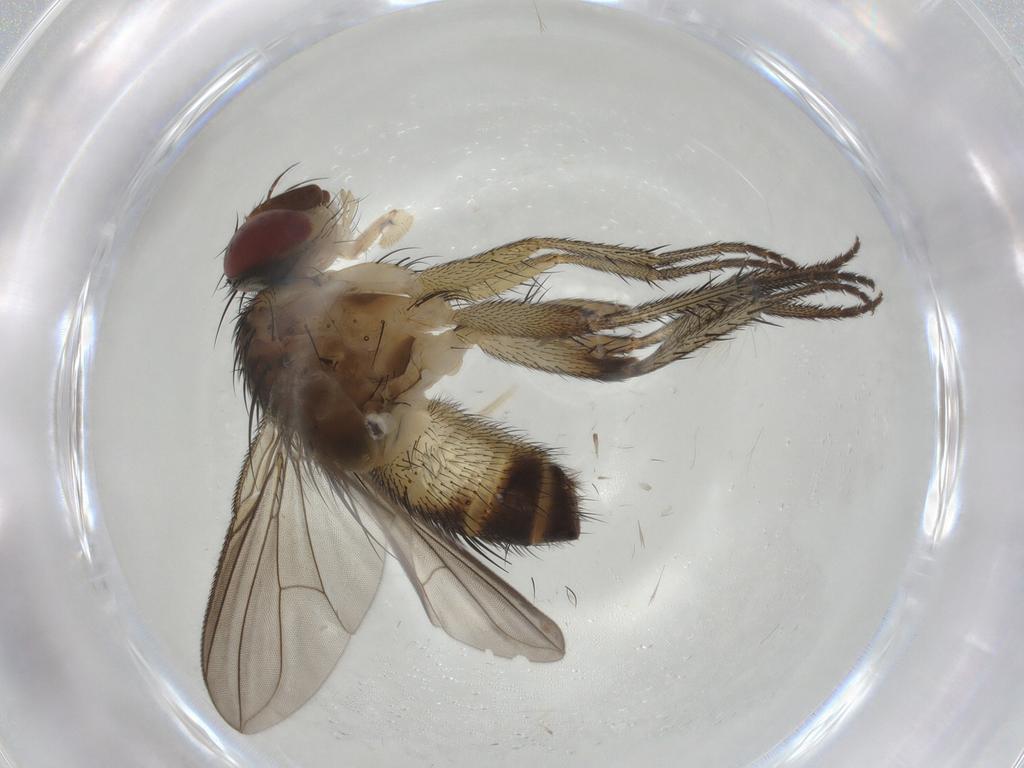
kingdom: Animalia
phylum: Arthropoda
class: Insecta
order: Diptera
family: Tachinidae
